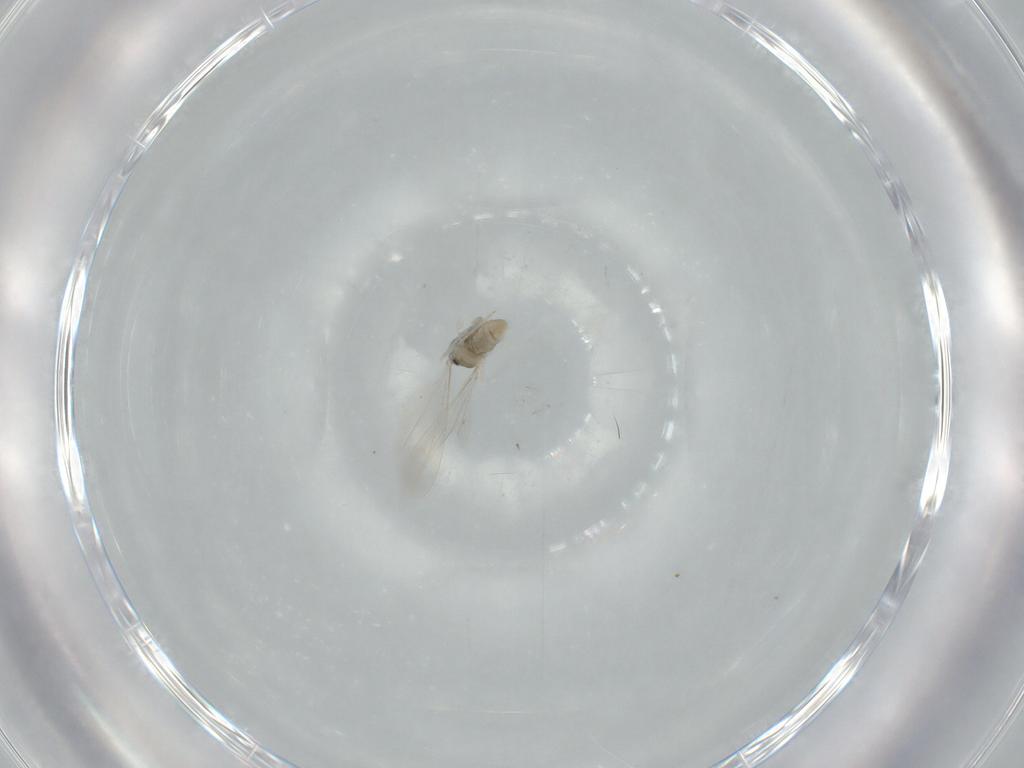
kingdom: Animalia
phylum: Arthropoda
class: Insecta
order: Diptera
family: Cecidomyiidae
